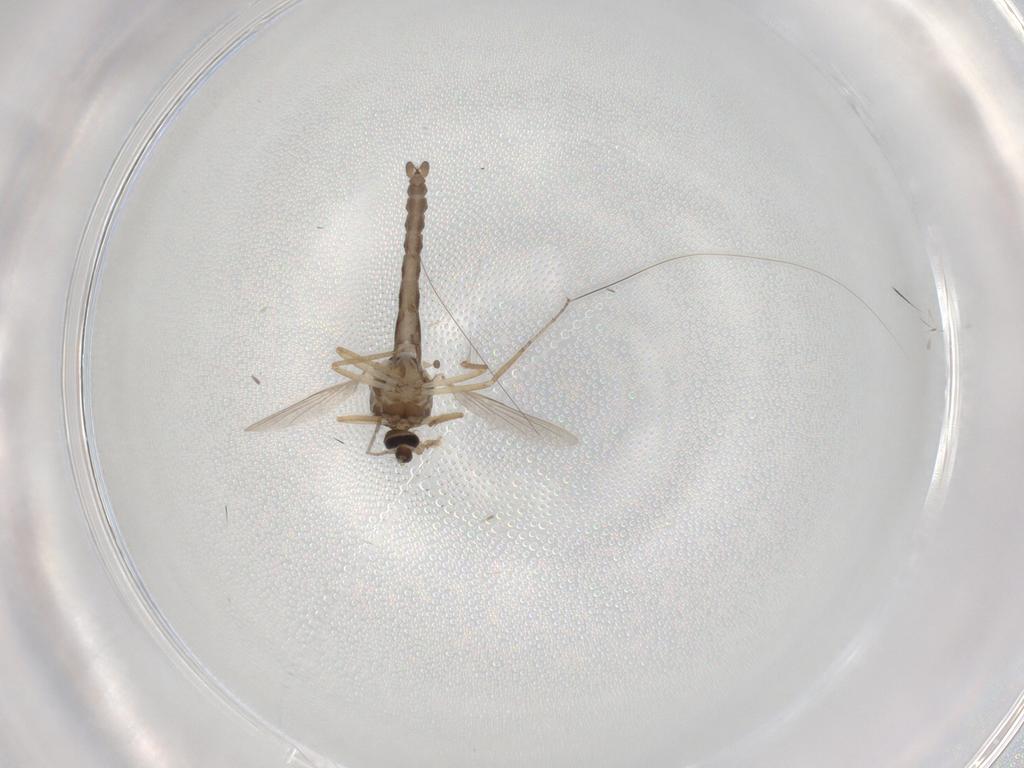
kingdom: Animalia
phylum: Arthropoda
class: Insecta
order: Diptera
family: Ceratopogonidae
